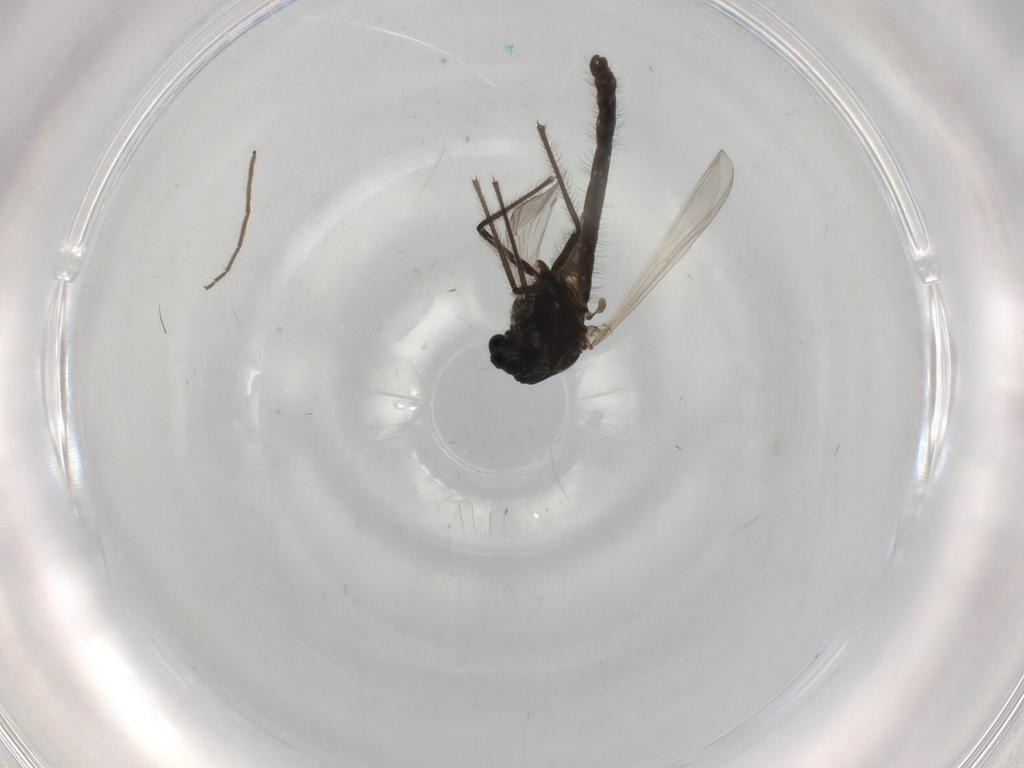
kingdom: Animalia
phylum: Arthropoda
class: Insecta
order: Diptera
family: Chironomidae
